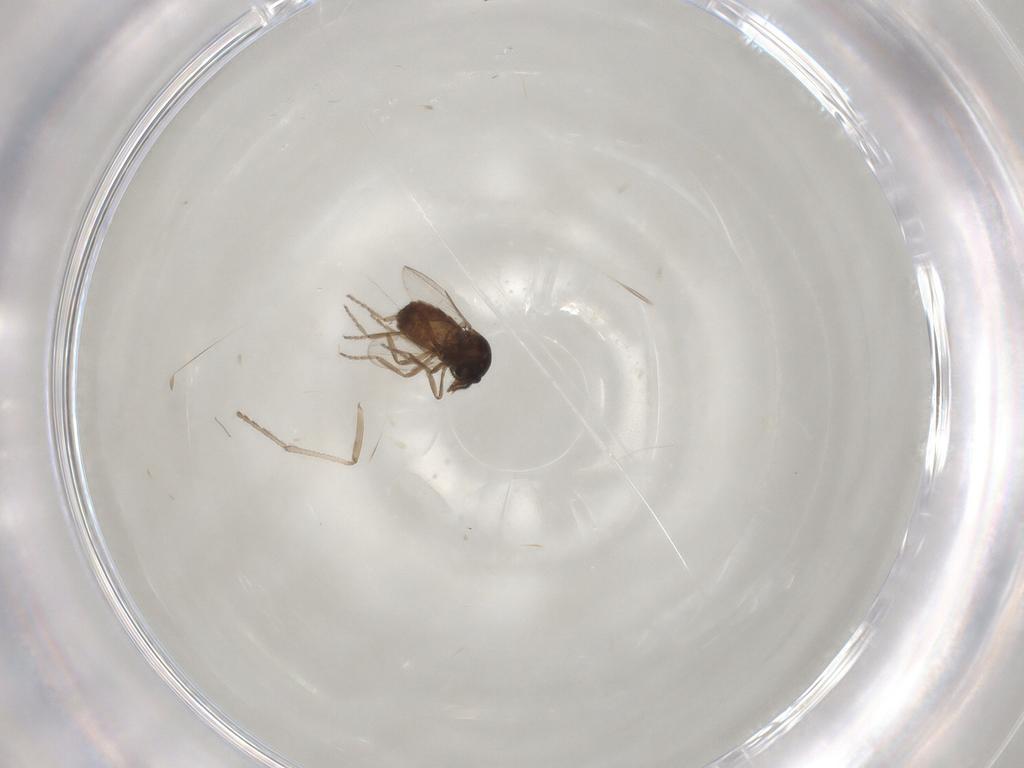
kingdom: Animalia
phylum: Arthropoda
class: Insecta
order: Diptera
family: Ceratopogonidae
